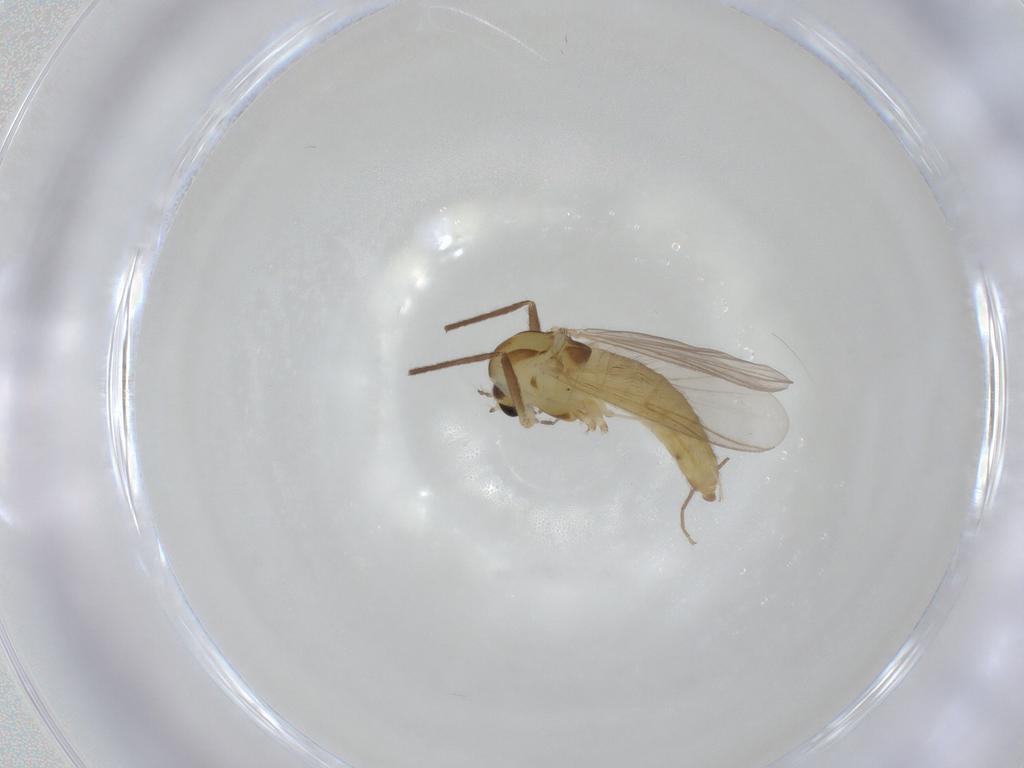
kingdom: Animalia
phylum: Arthropoda
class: Insecta
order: Diptera
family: Chironomidae
